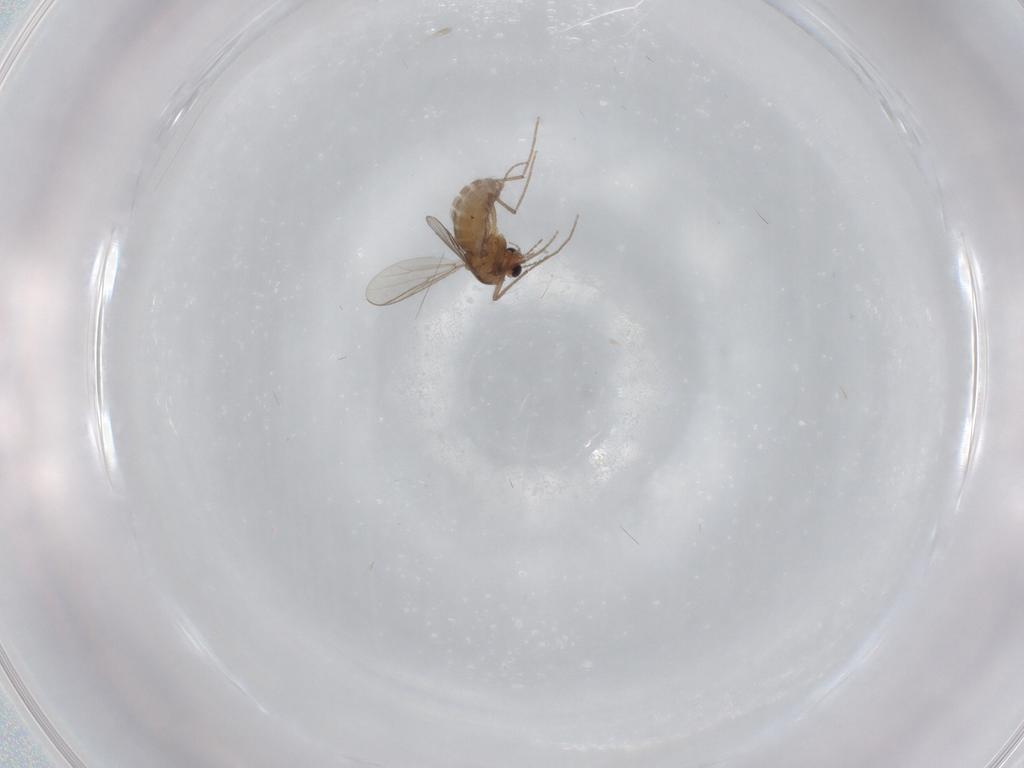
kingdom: Animalia
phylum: Arthropoda
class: Insecta
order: Diptera
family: Chironomidae
